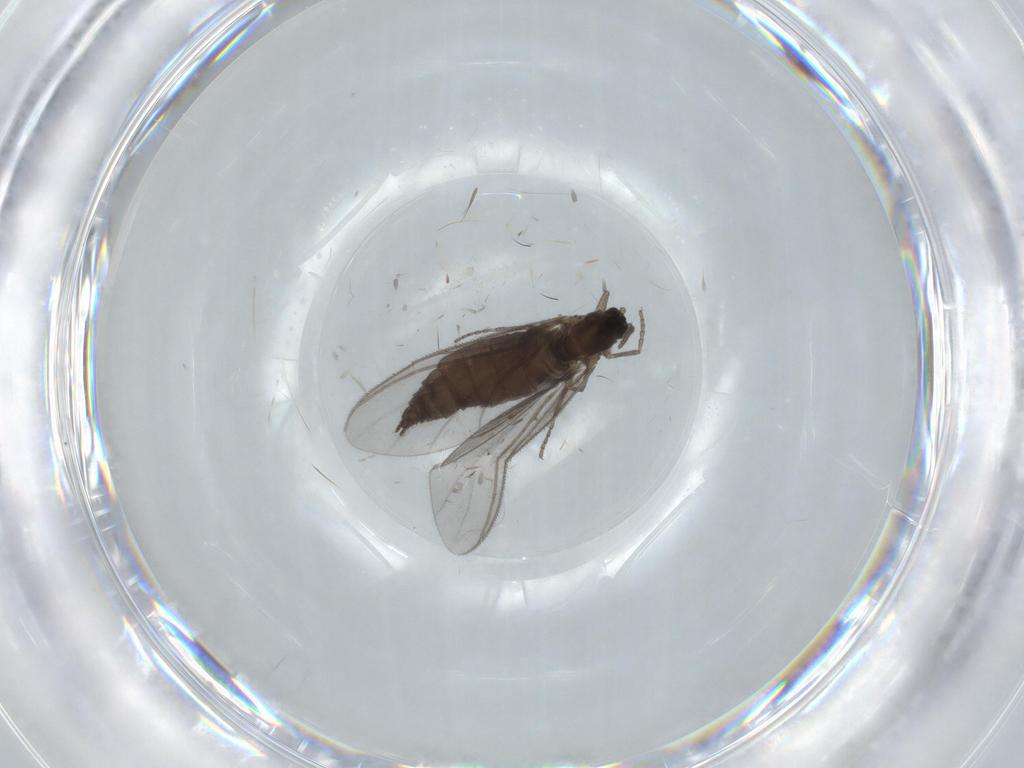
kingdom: Animalia
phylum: Arthropoda
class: Insecta
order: Diptera
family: Sciaridae
